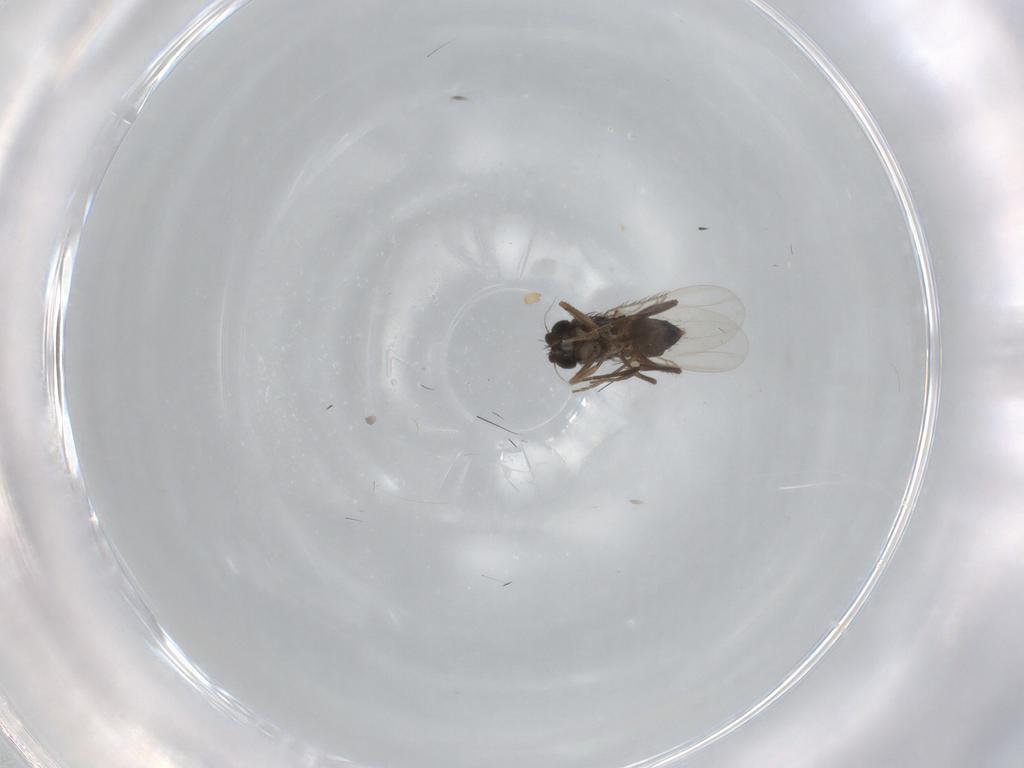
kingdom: Animalia
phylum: Arthropoda
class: Insecta
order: Diptera
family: Phoridae
